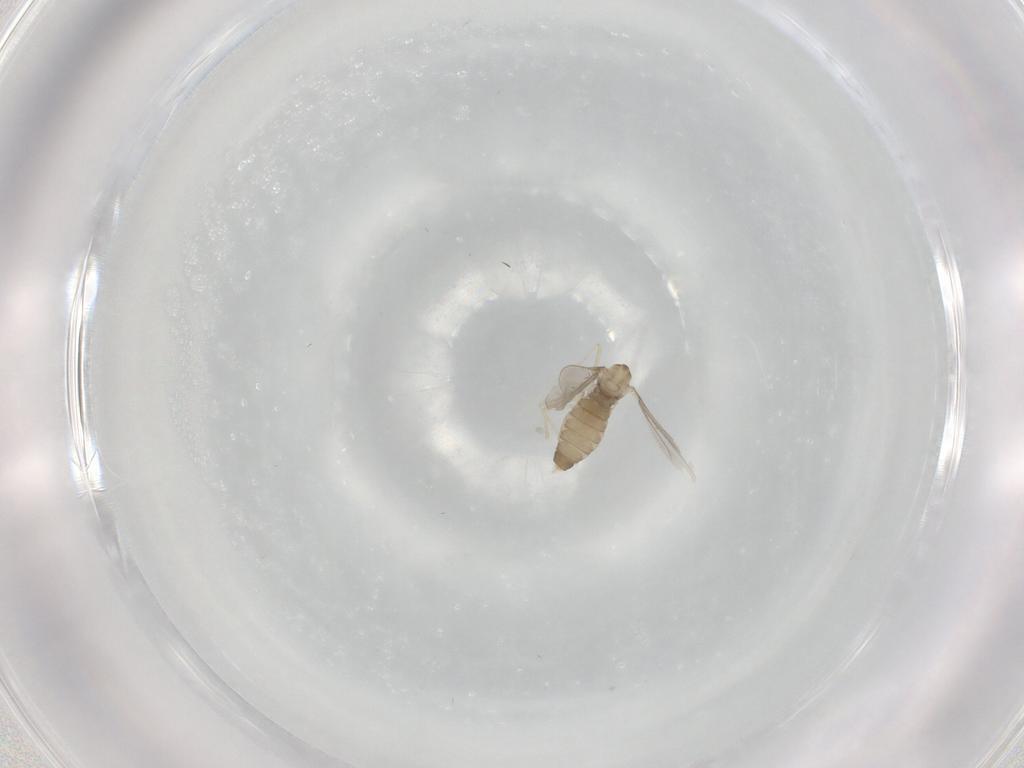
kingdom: Animalia
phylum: Arthropoda
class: Insecta
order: Diptera
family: Cecidomyiidae
